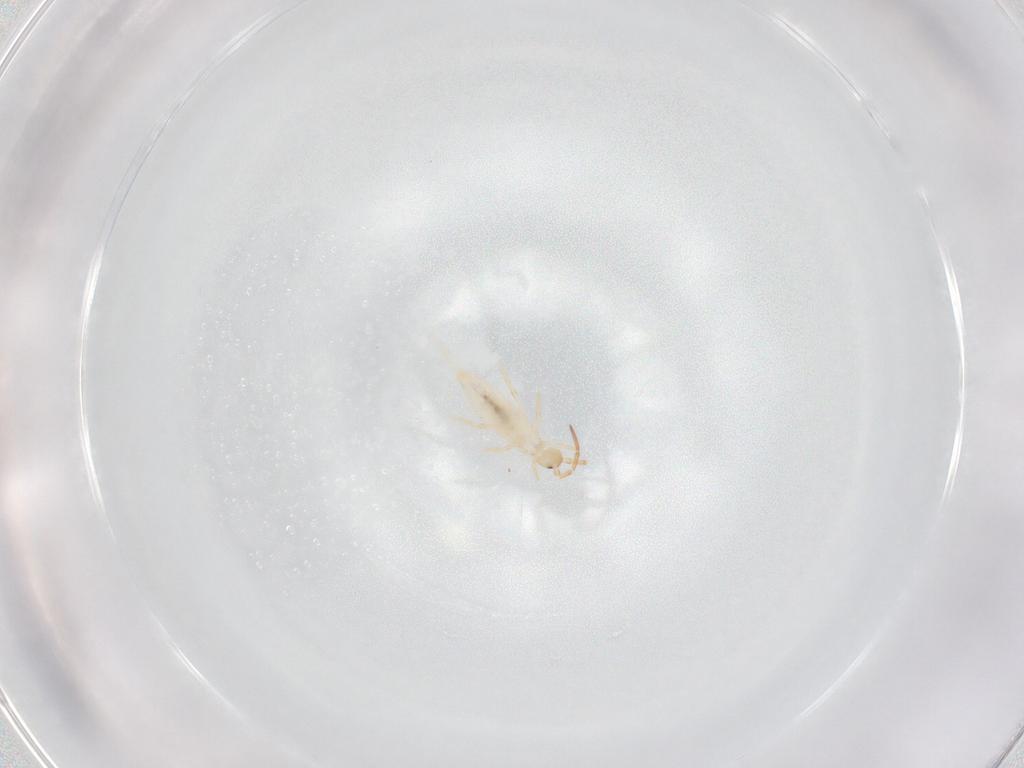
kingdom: Animalia
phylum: Arthropoda
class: Collembola
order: Entomobryomorpha
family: Entomobryidae
